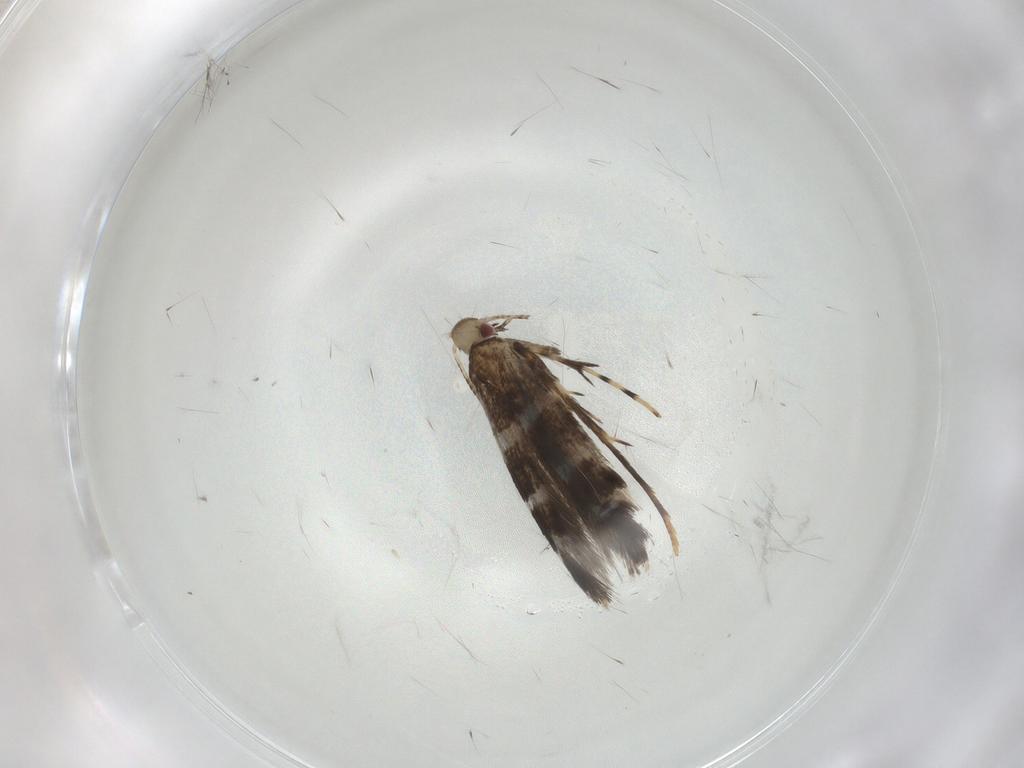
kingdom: Animalia
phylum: Arthropoda
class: Insecta
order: Lepidoptera
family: Gracillariidae
